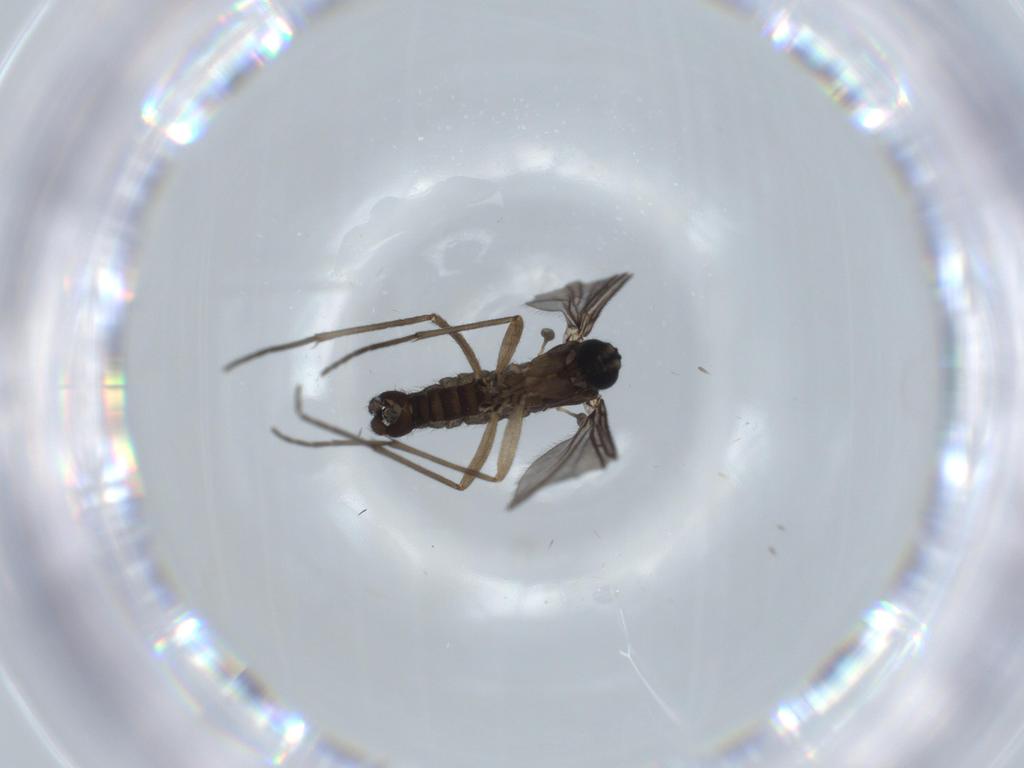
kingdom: Animalia
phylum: Arthropoda
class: Insecta
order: Diptera
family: Sciaridae
